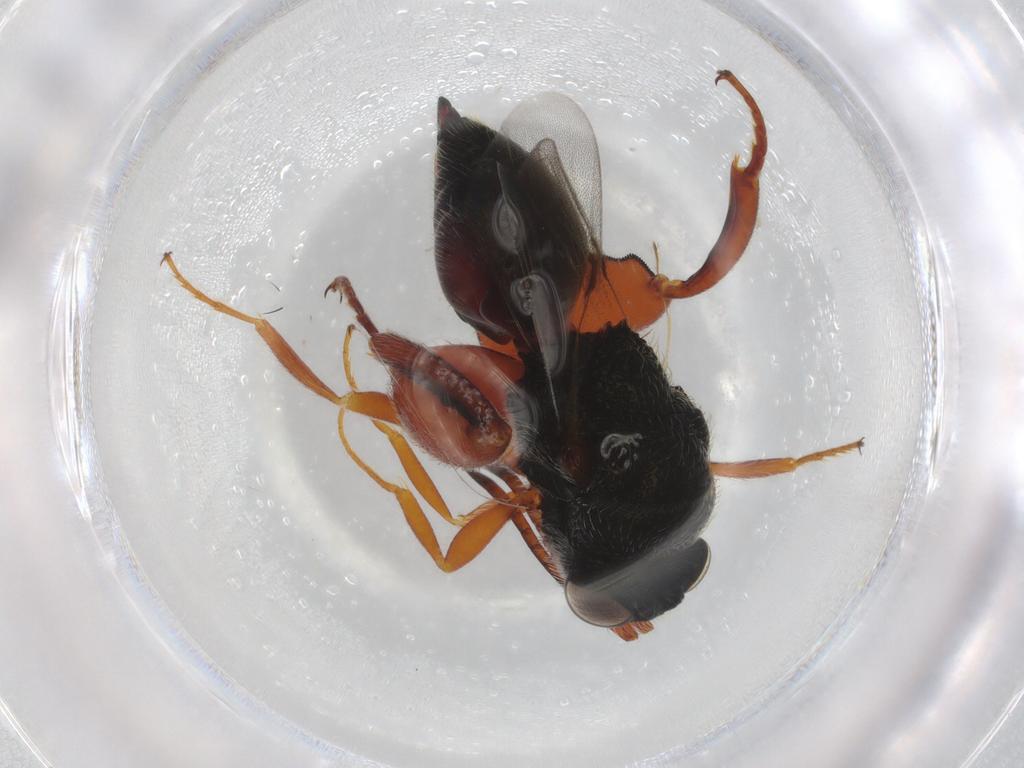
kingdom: Animalia
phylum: Arthropoda
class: Insecta
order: Hymenoptera
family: Chalcididae
